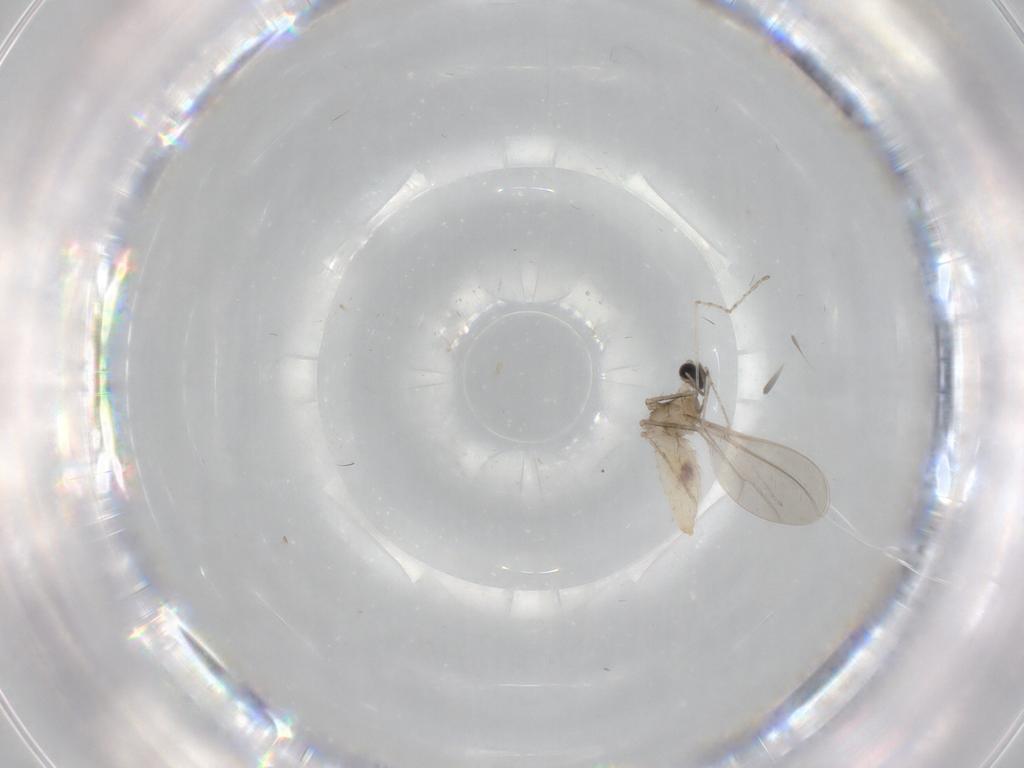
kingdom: Animalia
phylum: Arthropoda
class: Insecta
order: Diptera
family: Cecidomyiidae
